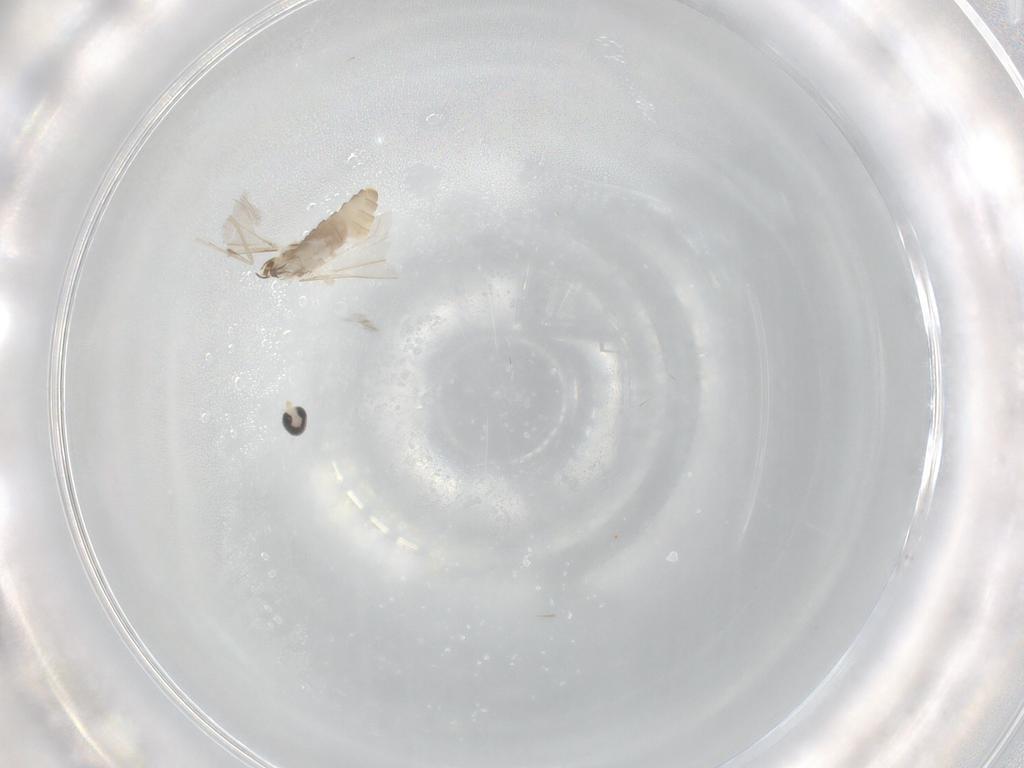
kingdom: Animalia
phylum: Arthropoda
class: Insecta
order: Diptera
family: Cecidomyiidae
